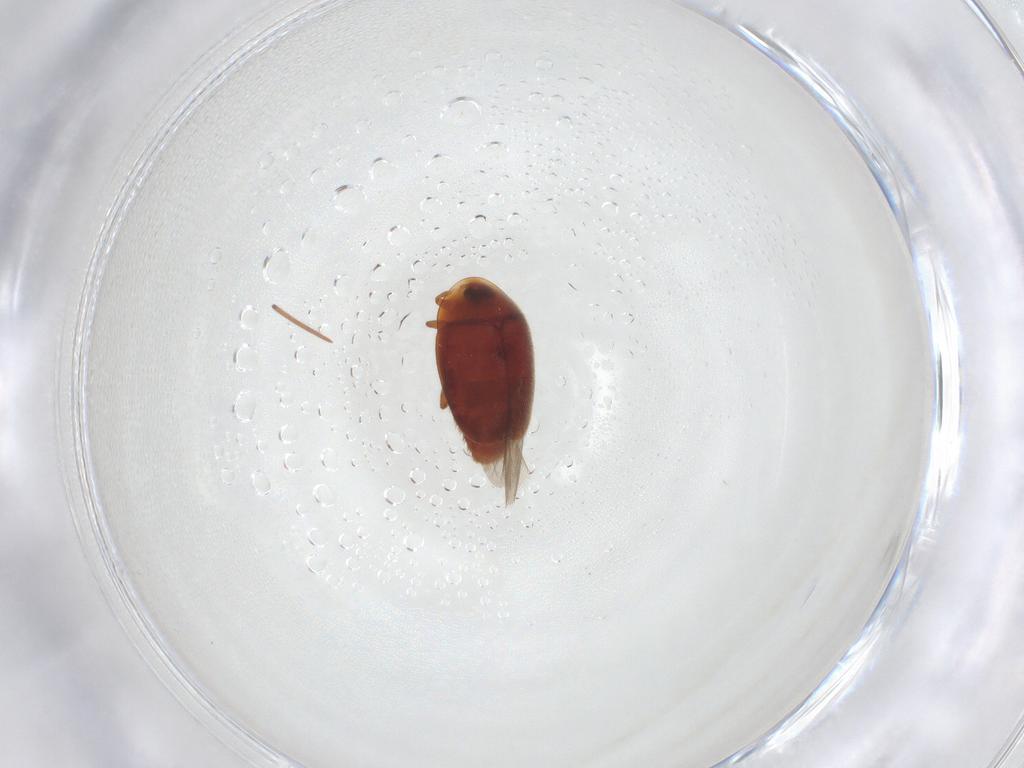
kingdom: Animalia
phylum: Arthropoda
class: Insecta
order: Coleoptera
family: Corylophidae
